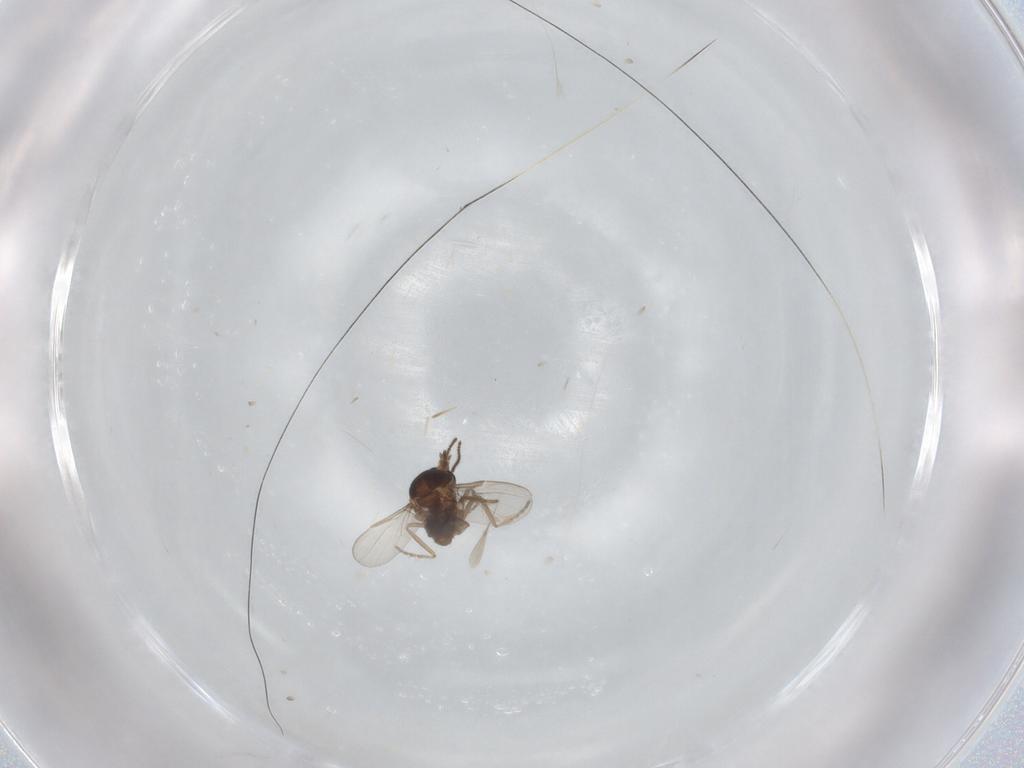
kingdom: Animalia
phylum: Arthropoda
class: Insecta
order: Diptera
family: Ceratopogonidae
